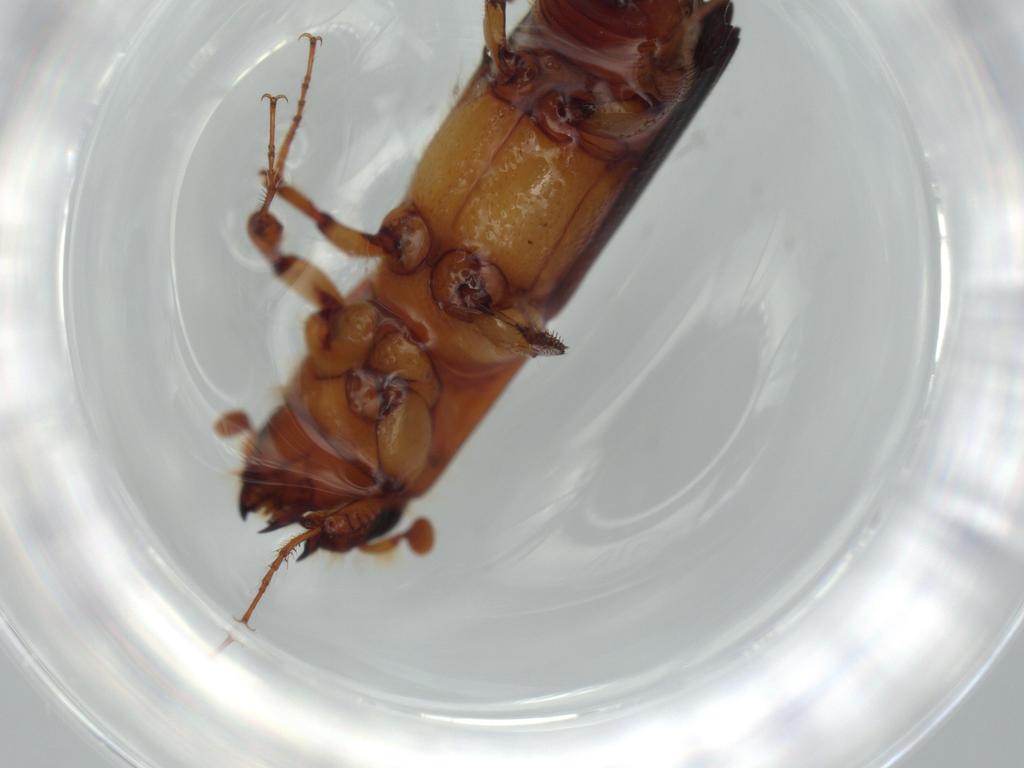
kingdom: Animalia
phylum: Arthropoda
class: Insecta
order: Coleoptera
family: Curculionidae
